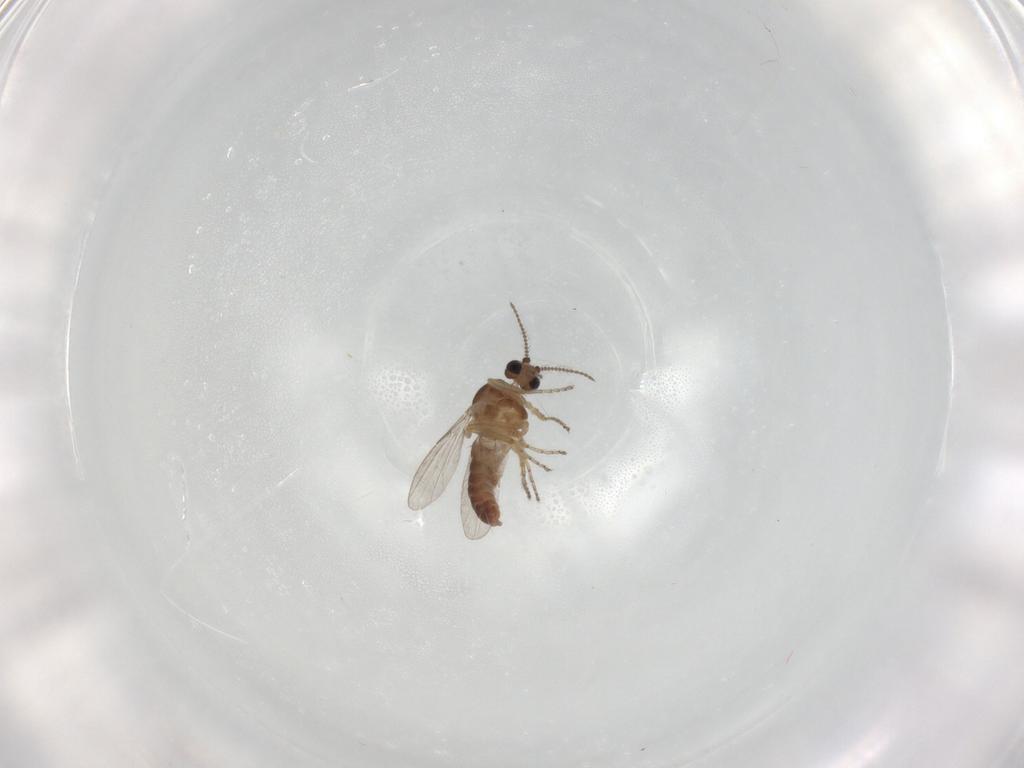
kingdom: Animalia
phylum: Arthropoda
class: Insecta
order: Diptera
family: Ceratopogonidae
